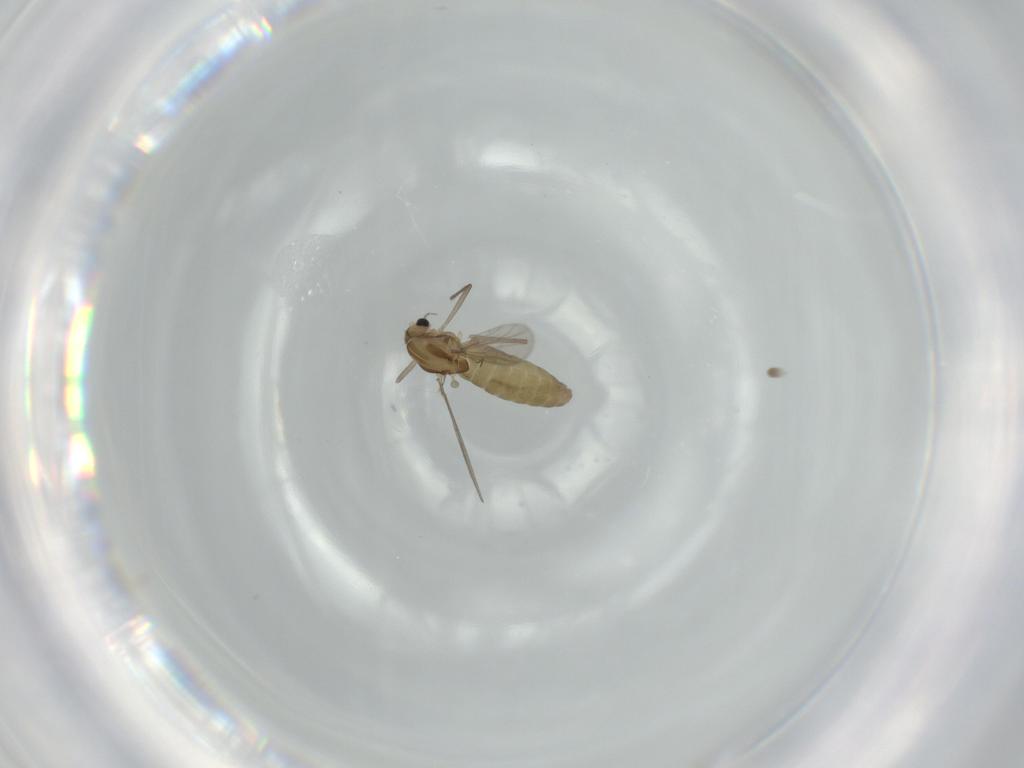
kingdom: Animalia
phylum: Arthropoda
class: Insecta
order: Diptera
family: Chironomidae
